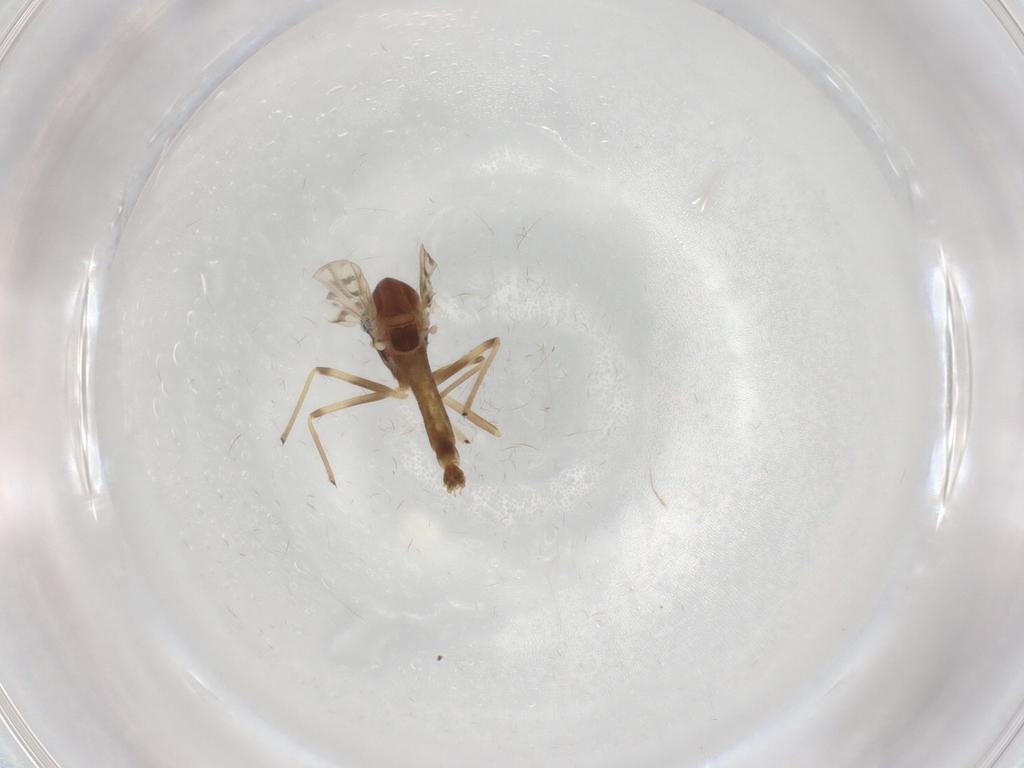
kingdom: Animalia
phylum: Arthropoda
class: Insecta
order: Diptera
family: Chironomidae
